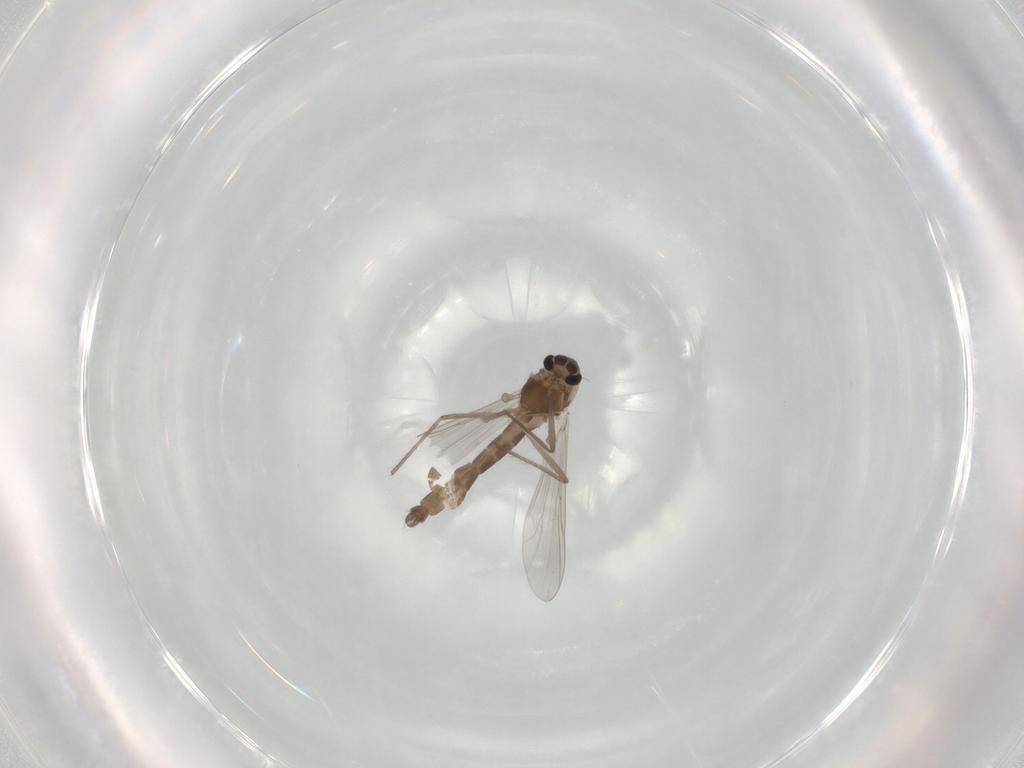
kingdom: Animalia
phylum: Arthropoda
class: Insecta
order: Diptera
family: Chironomidae
